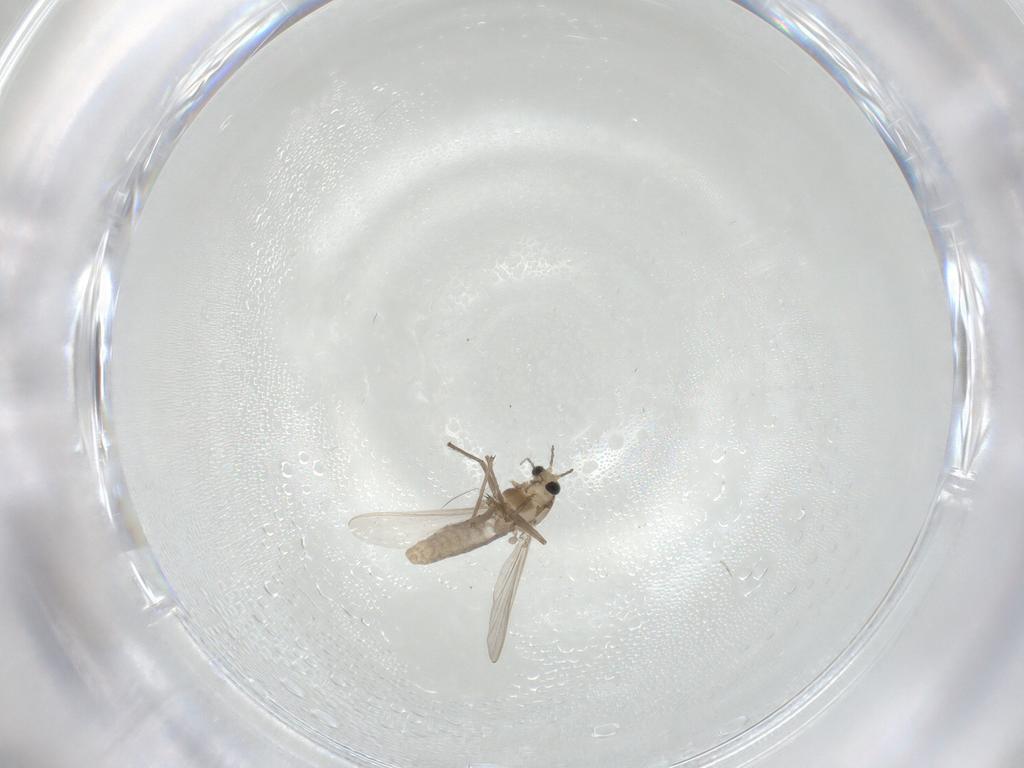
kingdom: Animalia
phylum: Arthropoda
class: Insecta
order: Diptera
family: Chironomidae
